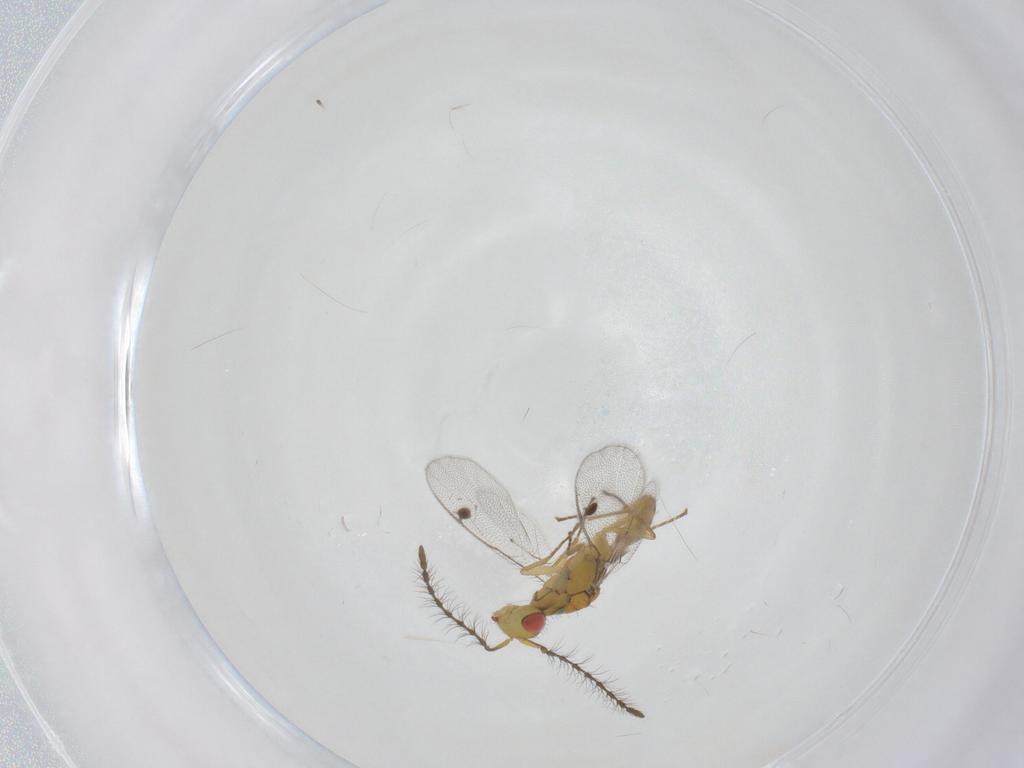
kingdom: Animalia
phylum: Arthropoda
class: Insecta
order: Hymenoptera
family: Megastigmidae
